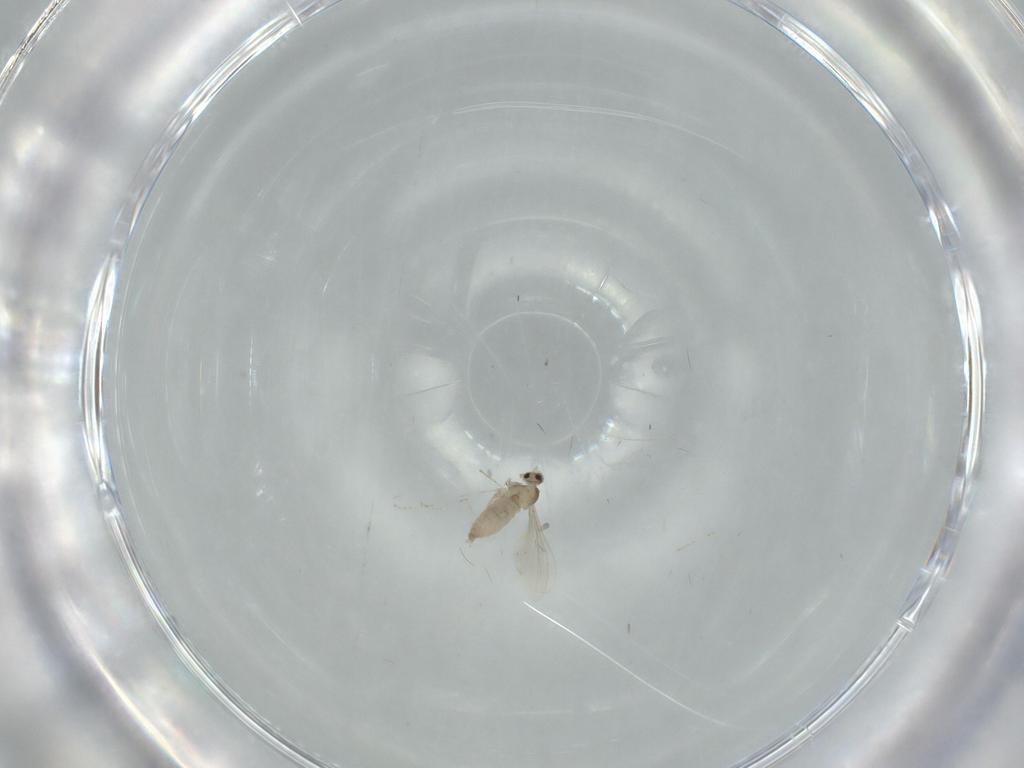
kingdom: Animalia
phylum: Arthropoda
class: Insecta
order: Diptera
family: Cecidomyiidae
